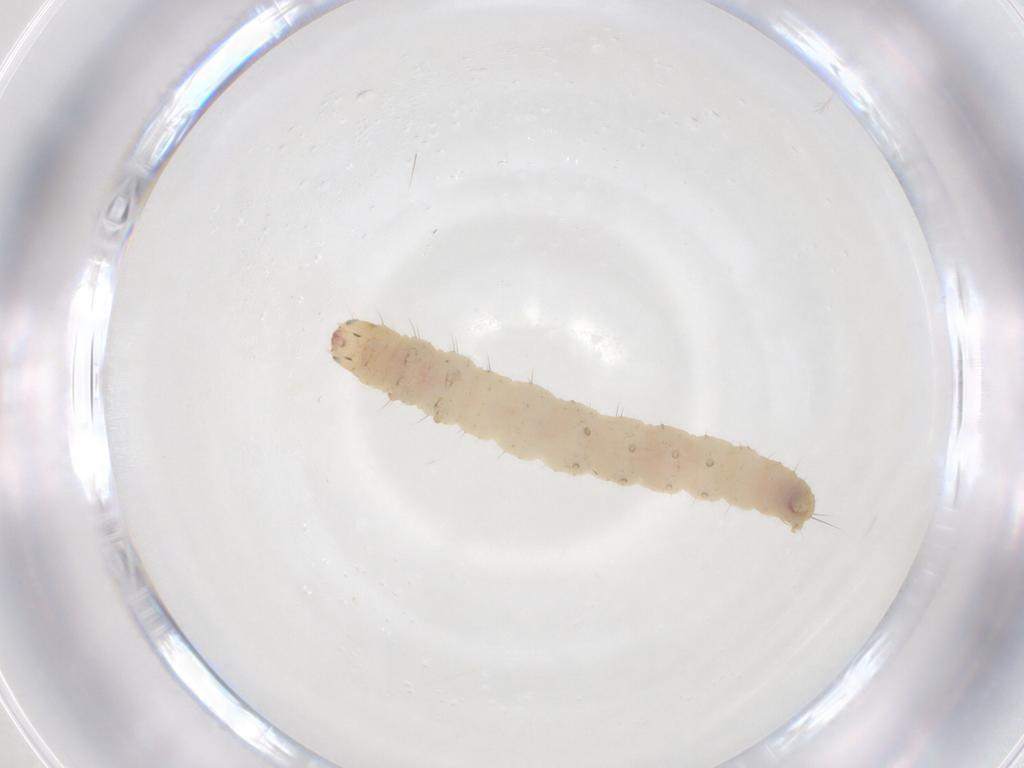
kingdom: Animalia
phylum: Arthropoda
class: Insecta
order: Lepidoptera
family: Gelechiidae
